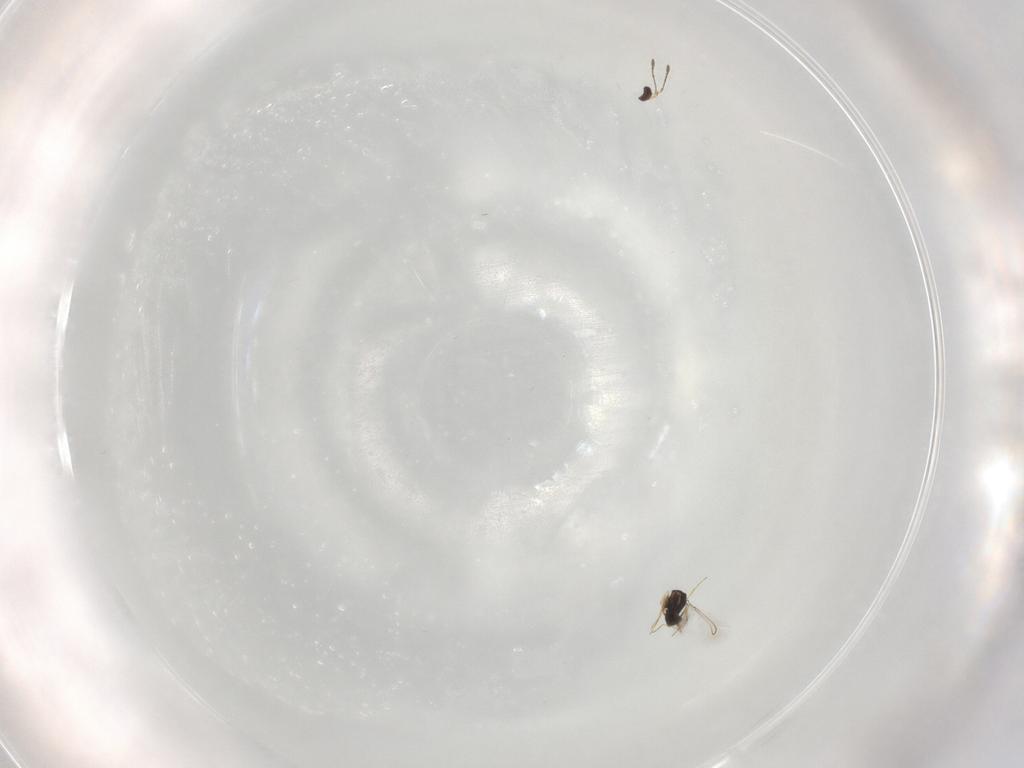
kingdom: Animalia
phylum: Arthropoda
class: Insecta
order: Hymenoptera
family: Mymaridae
